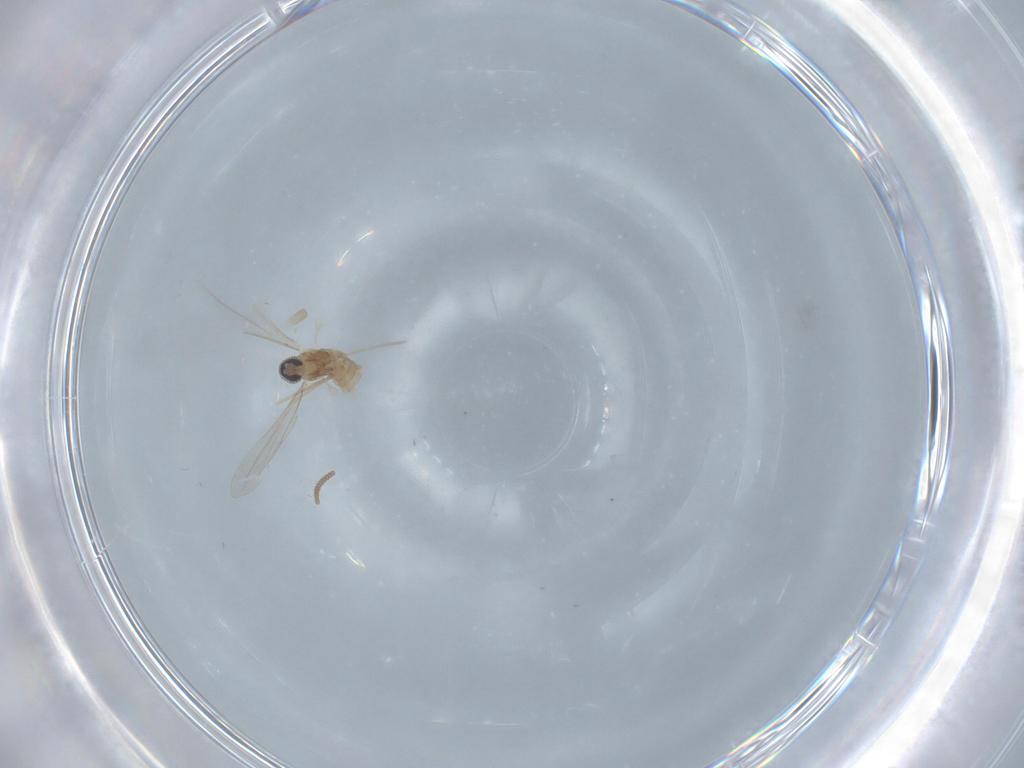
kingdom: Animalia
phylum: Arthropoda
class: Insecta
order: Diptera
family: Cecidomyiidae
